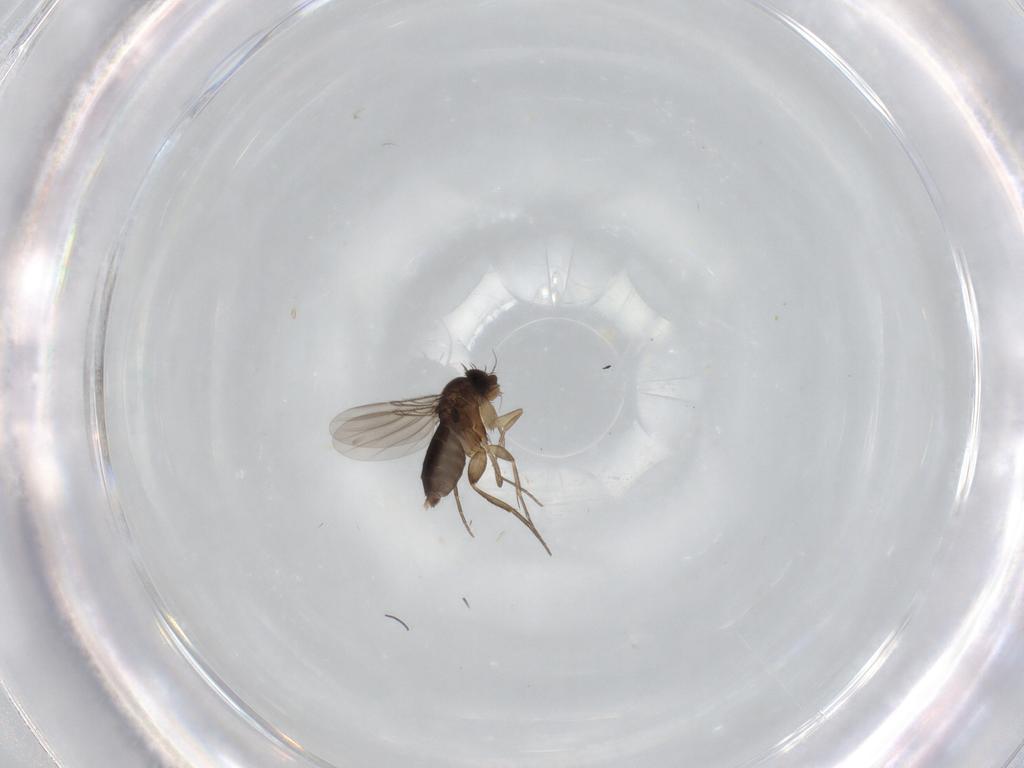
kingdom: Animalia
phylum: Arthropoda
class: Insecta
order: Diptera
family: Phoridae
